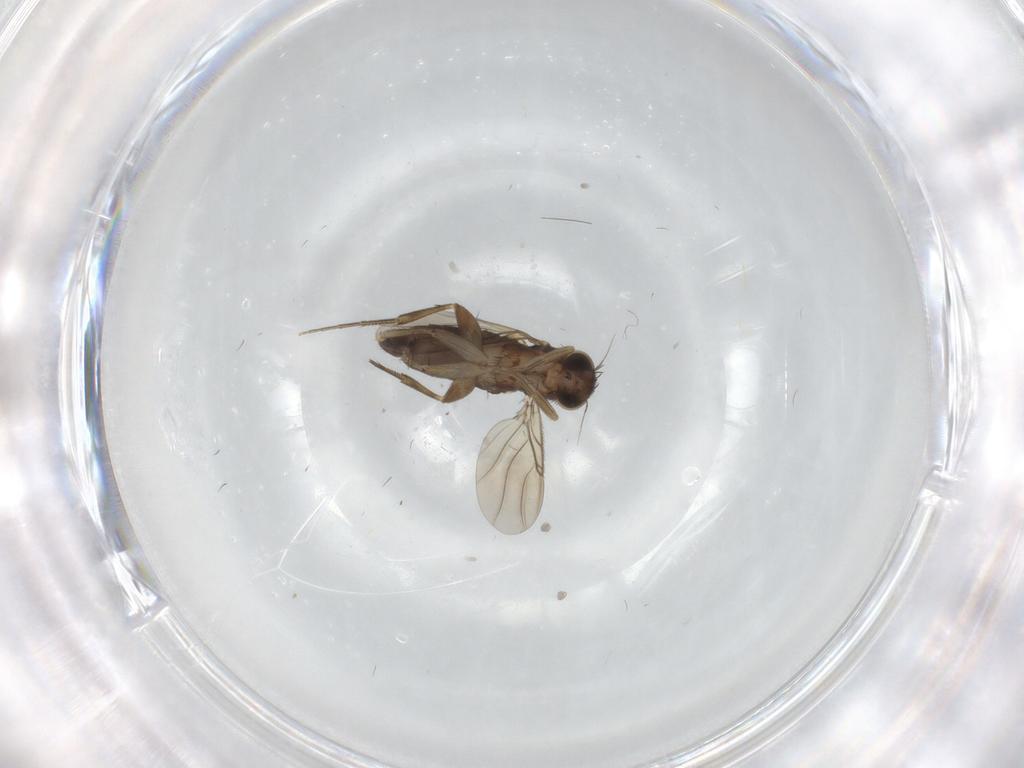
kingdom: Animalia
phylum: Arthropoda
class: Insecta
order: Diptera
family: Phoridae
